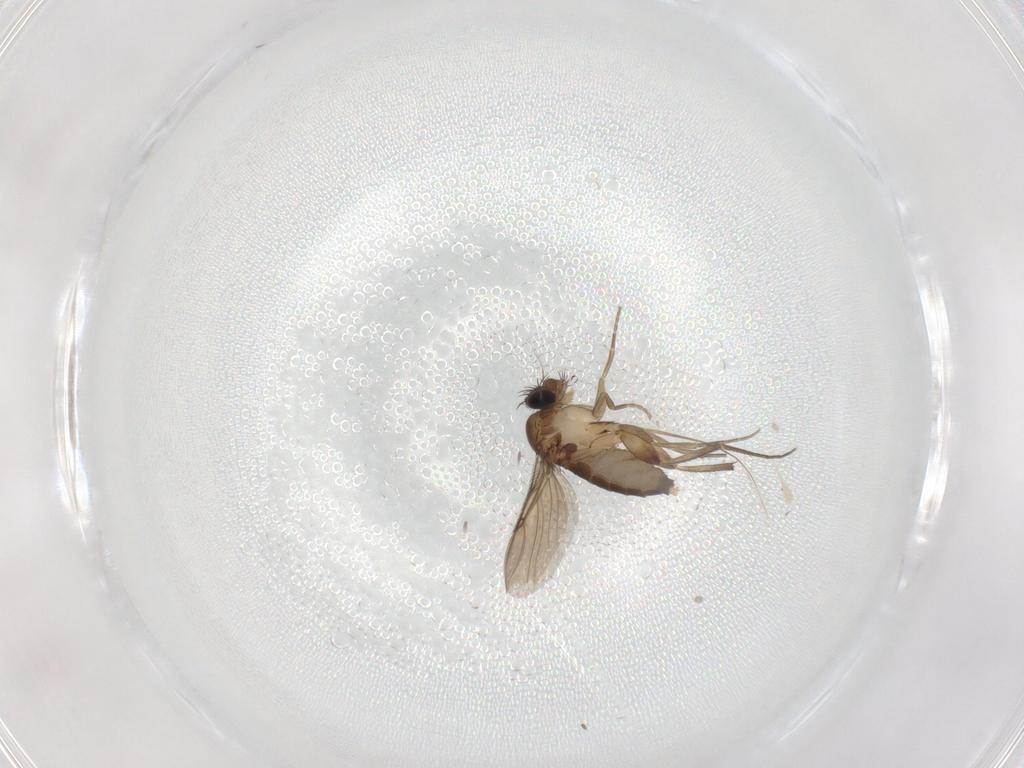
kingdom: Animalia
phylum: Arthropoda
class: Insecta
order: Diptera
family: Phoridae
